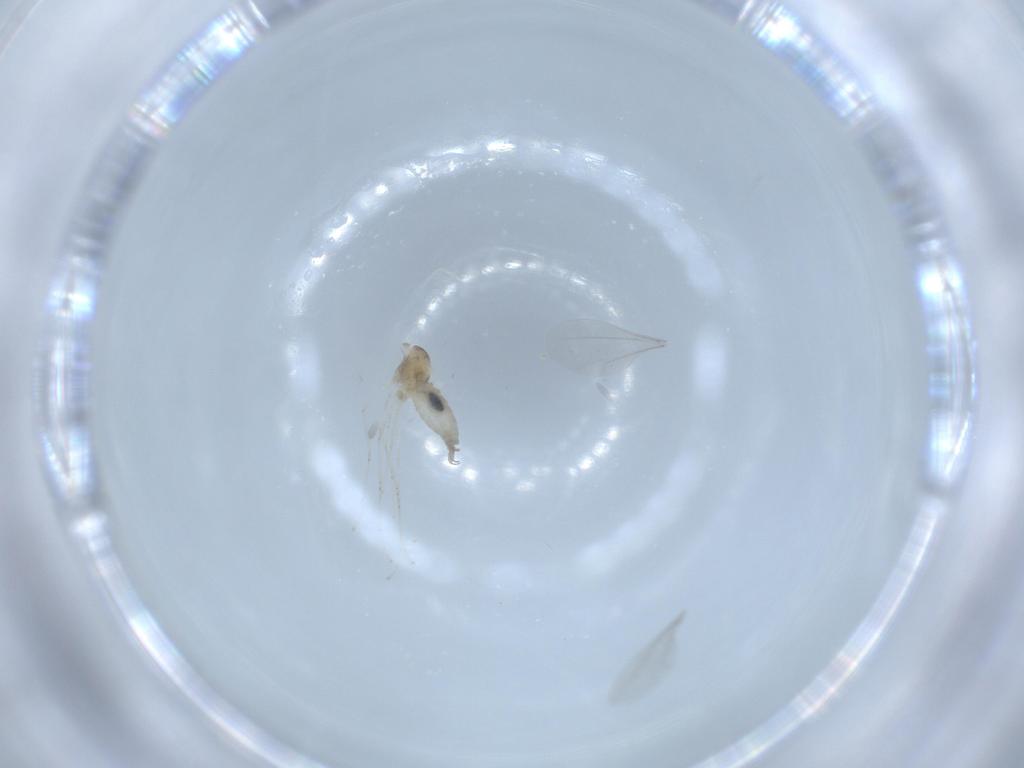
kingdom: Animalia
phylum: Arthropoda
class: Insecta
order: Diptera
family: Cecidomyiidae
